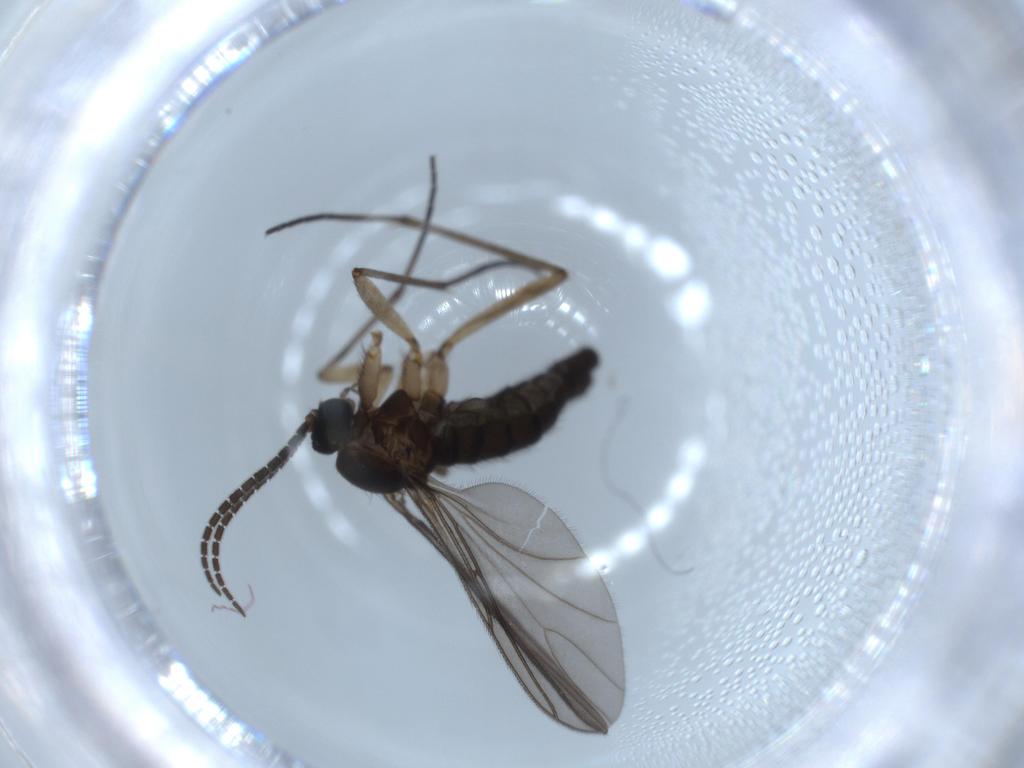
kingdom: Animalia
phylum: Arthropoda
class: Insecta
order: Diptera
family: Sciaridae
